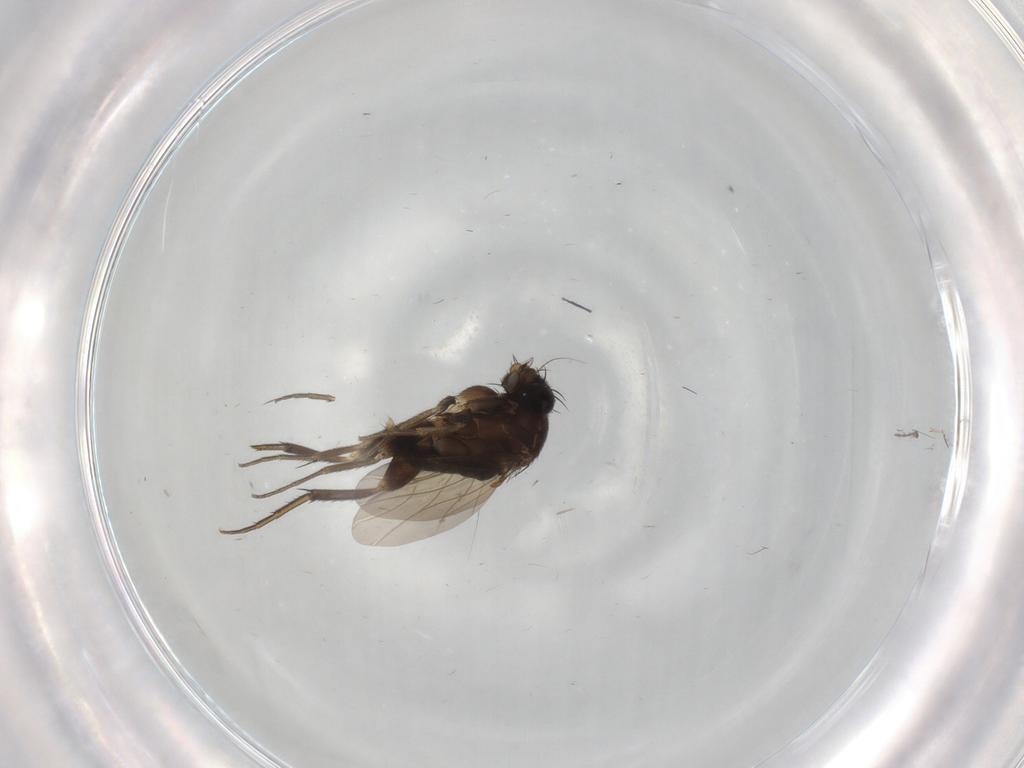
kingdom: Animalia
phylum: Arthropoda
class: Insecta
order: Diptera
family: Phoridae
